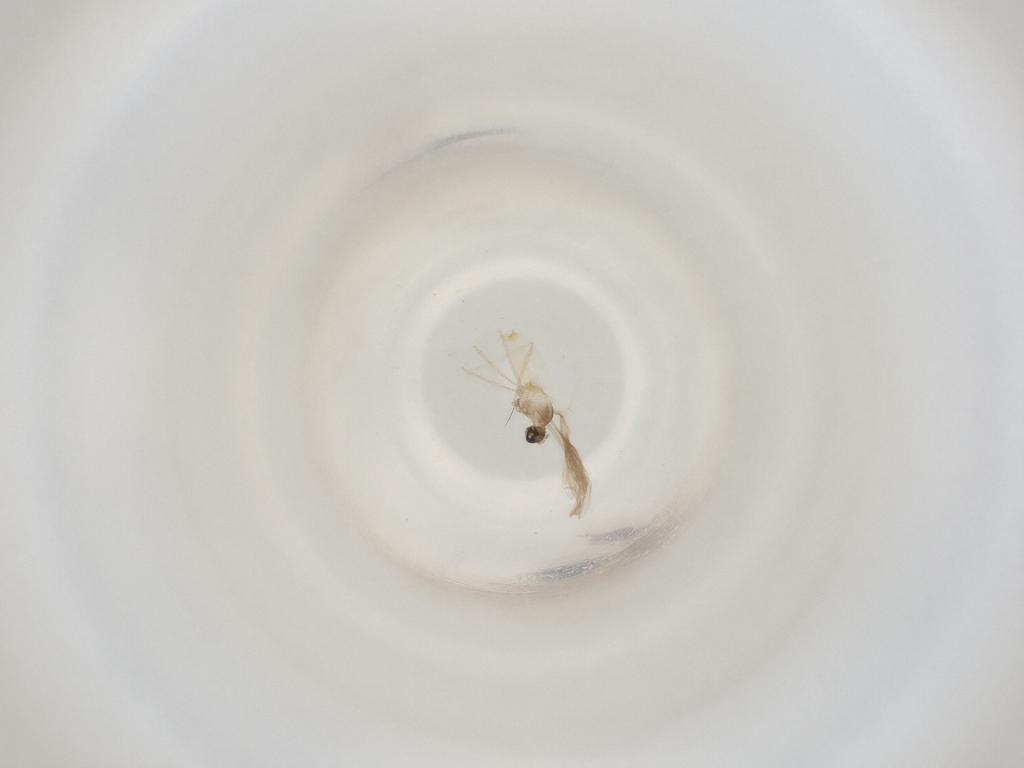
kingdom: Animalia
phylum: Arthropoda
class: Insecta
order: Diptera
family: Cecidomyiidae
